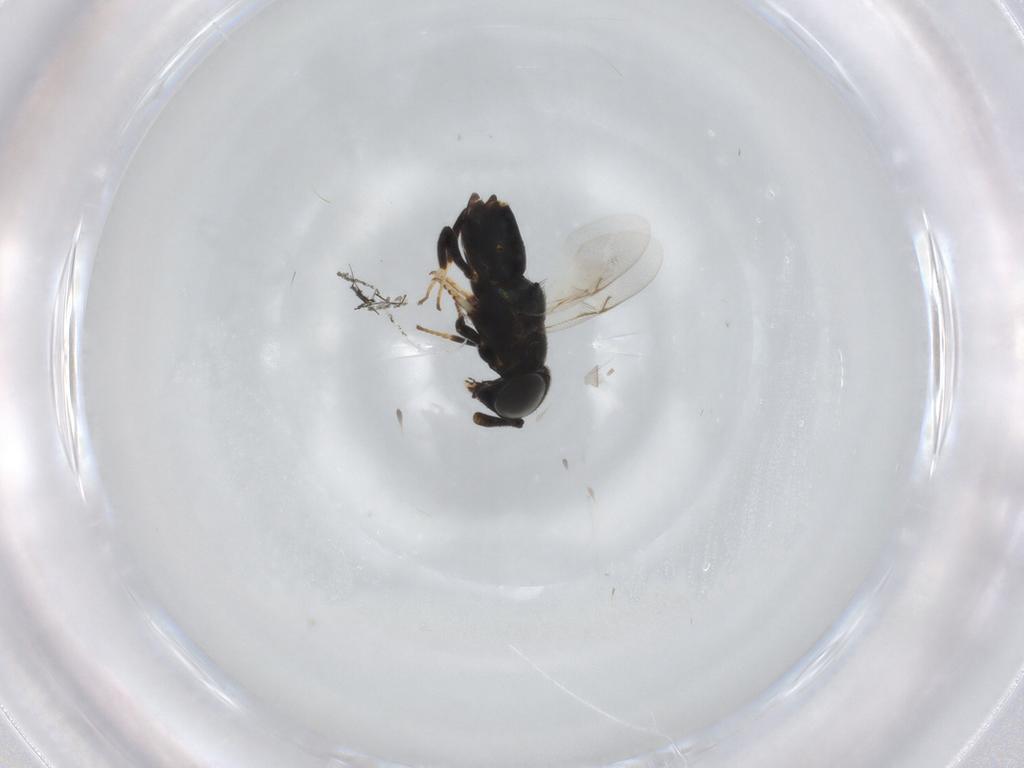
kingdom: Animalia
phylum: Arthropoda
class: Insecta
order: Hymenoptera
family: Encyrtidae
